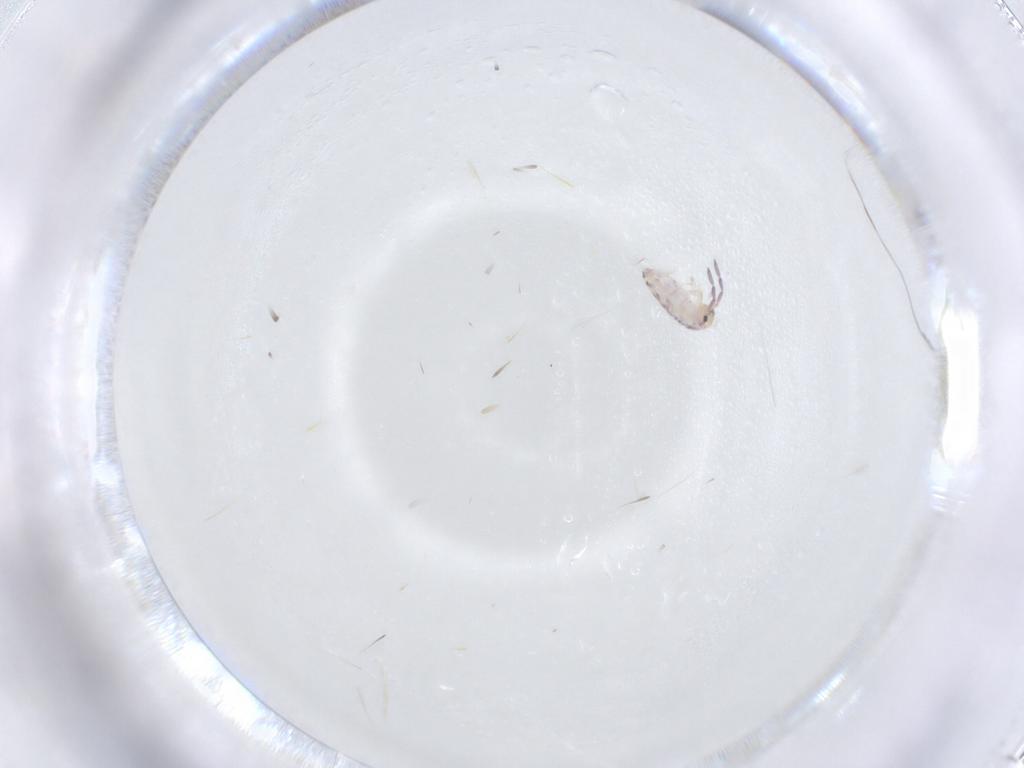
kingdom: Animalia
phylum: Arthropoda
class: Collembola
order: Entomobryomorpha
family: Entomobryidae
